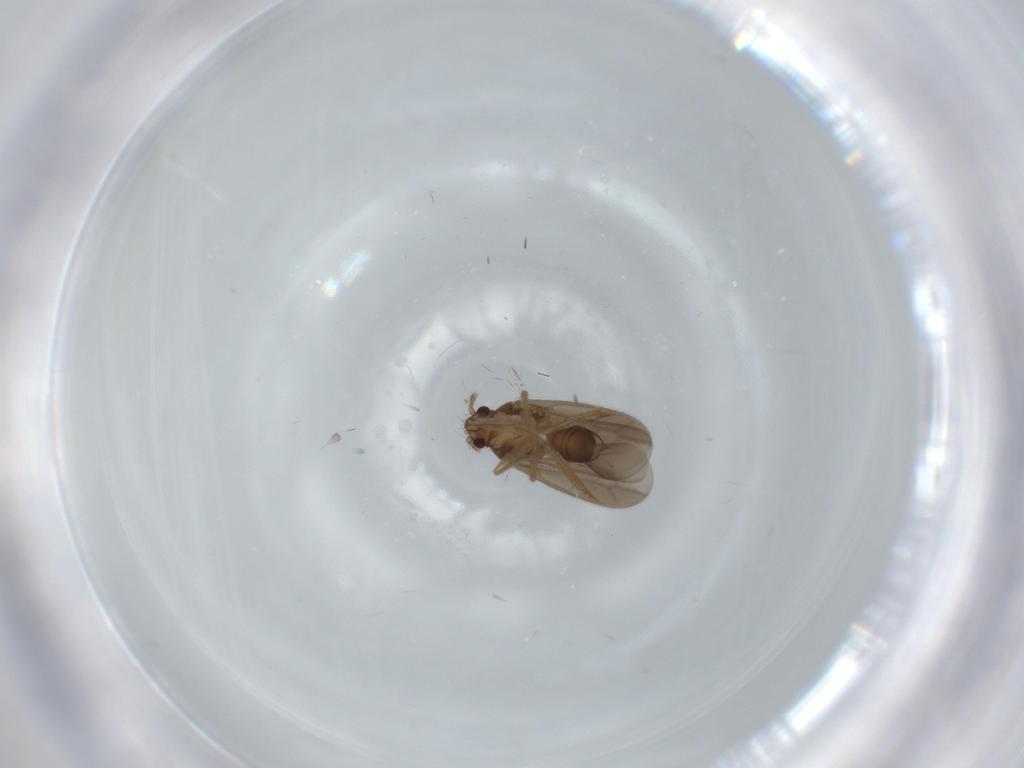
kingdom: Animalia
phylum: Arthropoda
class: Insecta
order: Hemiptera
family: Ceratocombidae
